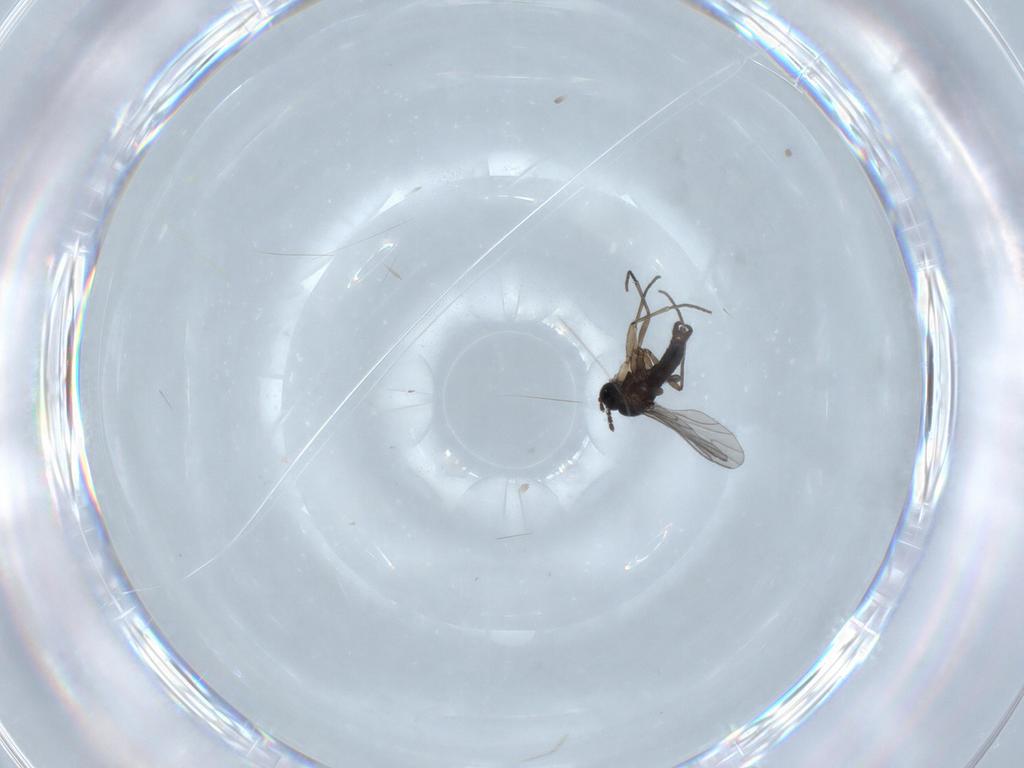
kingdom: Animalia
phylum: Arthropoda
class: Insecta
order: Diptera
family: Sciaridae
